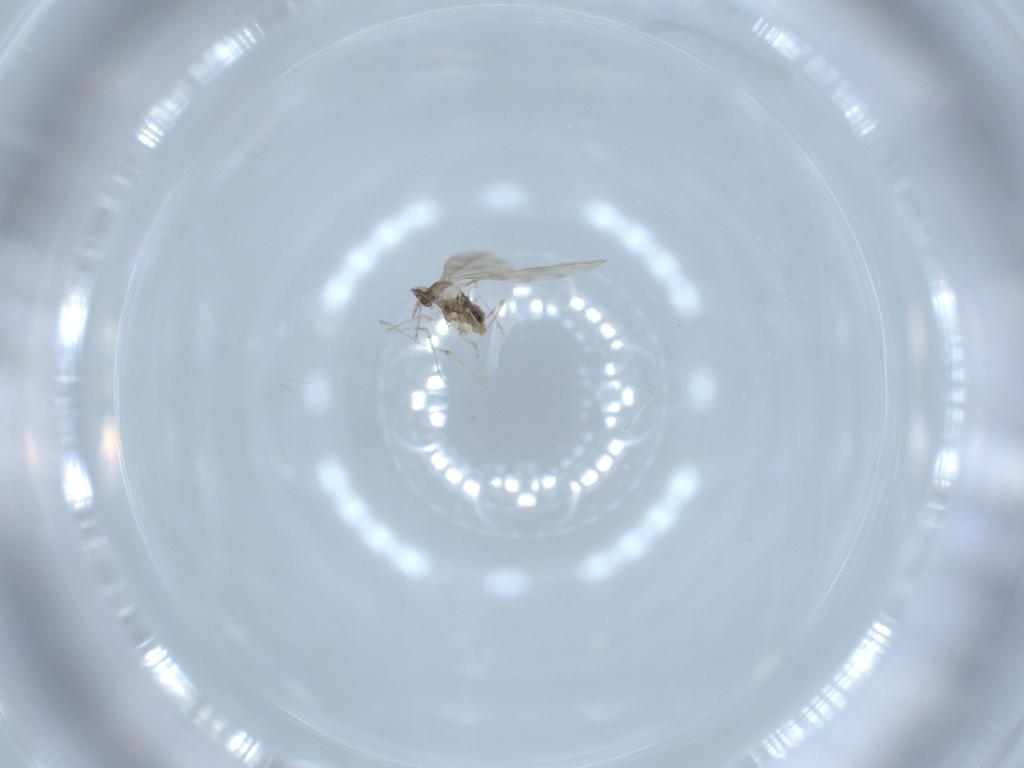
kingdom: Animalia
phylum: Arthropoda
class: Insecta
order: Diptera
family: Cecidomyiidae
